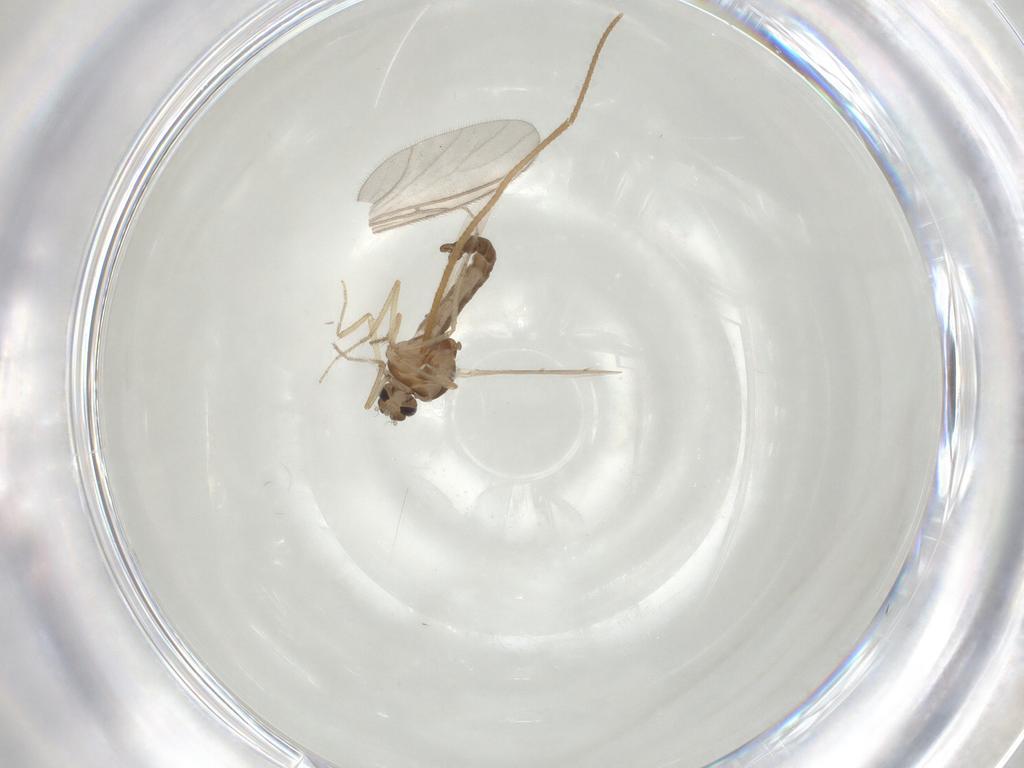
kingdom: Animalia
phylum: Arthropoda
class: Insecta
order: Diptera
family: Ceratopogonidae
